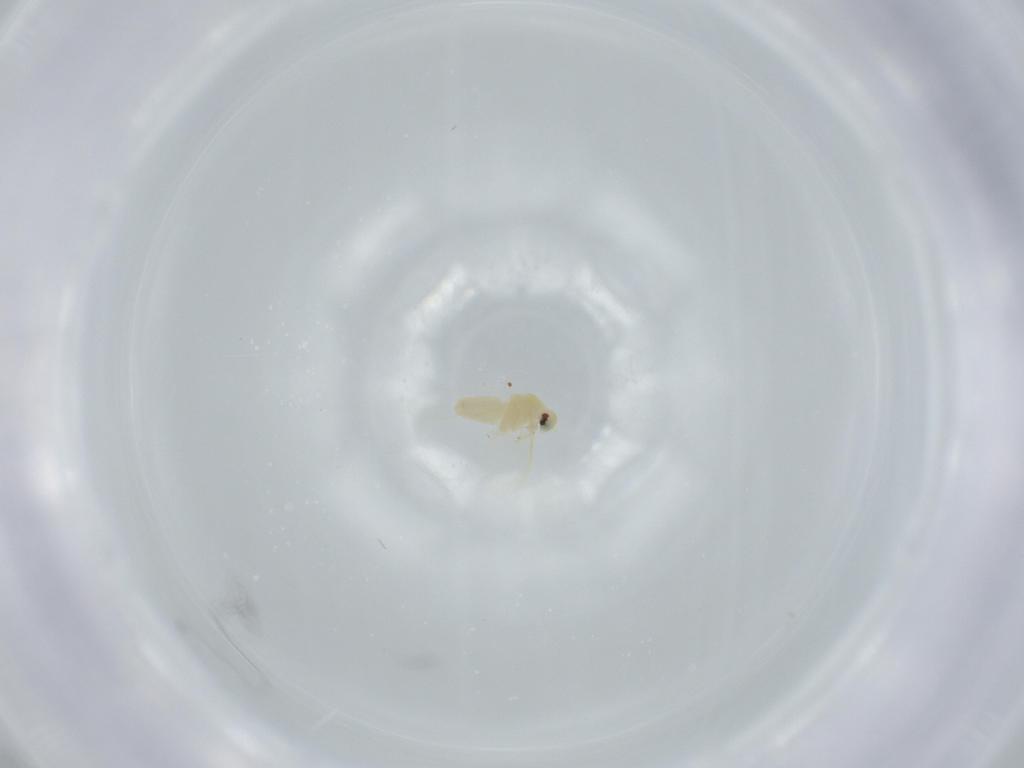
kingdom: Animalia
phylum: Arthropoda
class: Insecta
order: Hemiptera
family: Aleyrodidae
